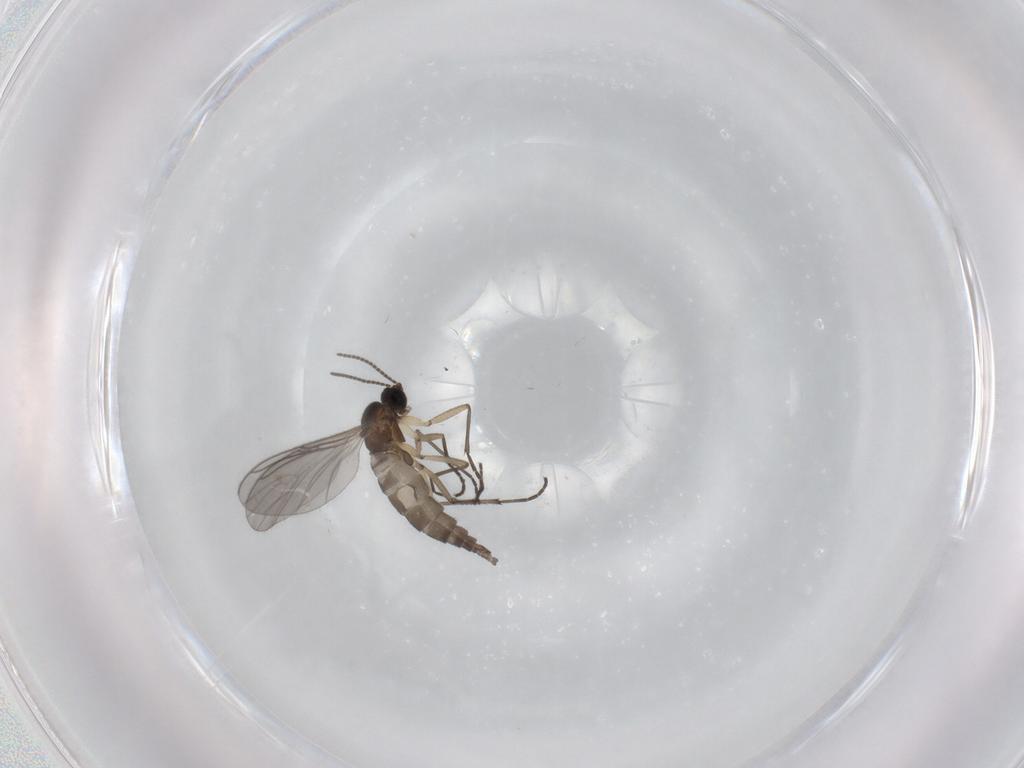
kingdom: Animalia
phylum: Arthropoda
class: Insecta
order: Diptera
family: Sciaridae
